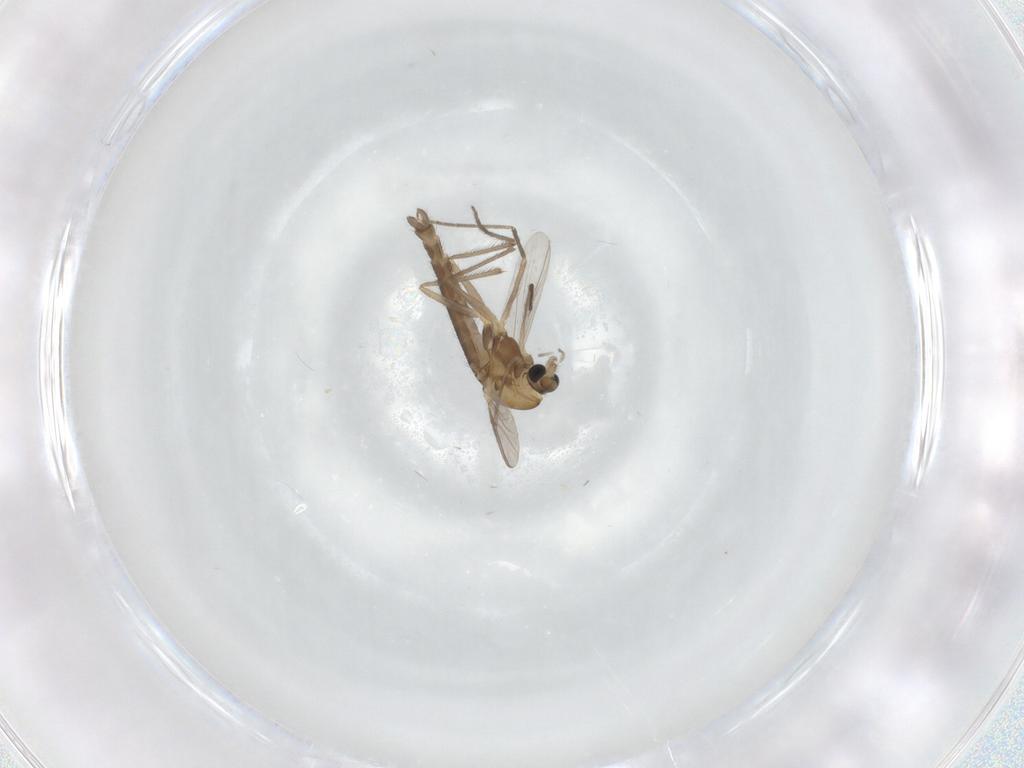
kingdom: Animalia
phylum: Arthropoda
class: Insecta
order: Diptera
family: Chironomidae
